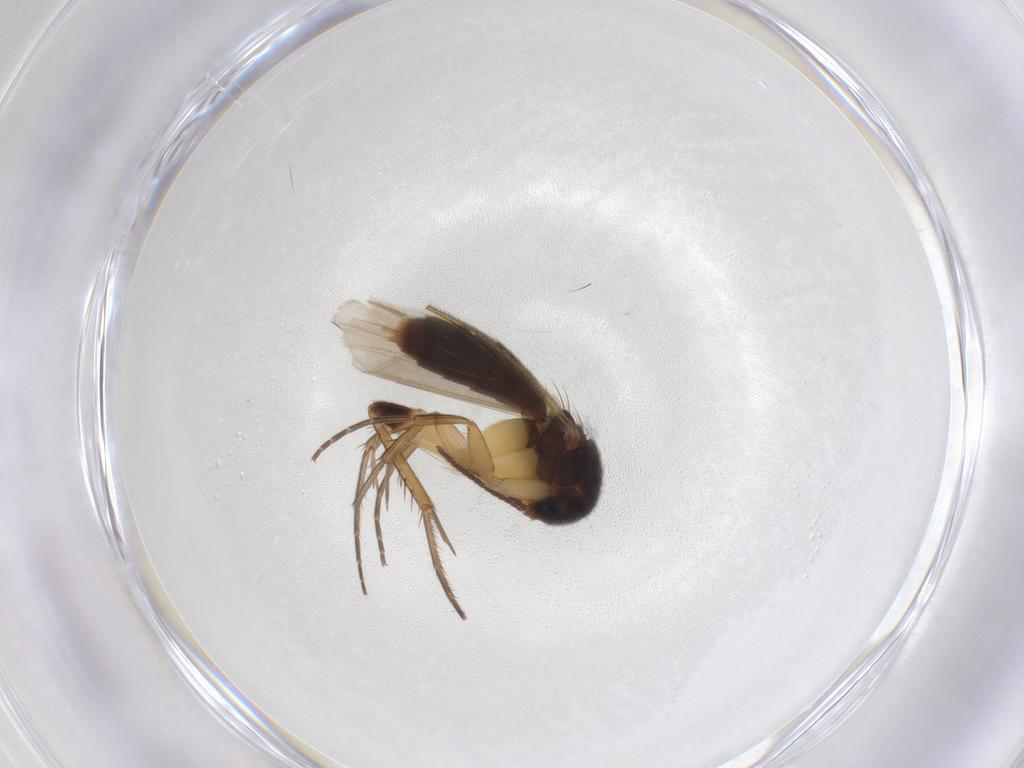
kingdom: Animalia
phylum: Arthropoda
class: Insecta
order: Diptera
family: Mycetophilidae
